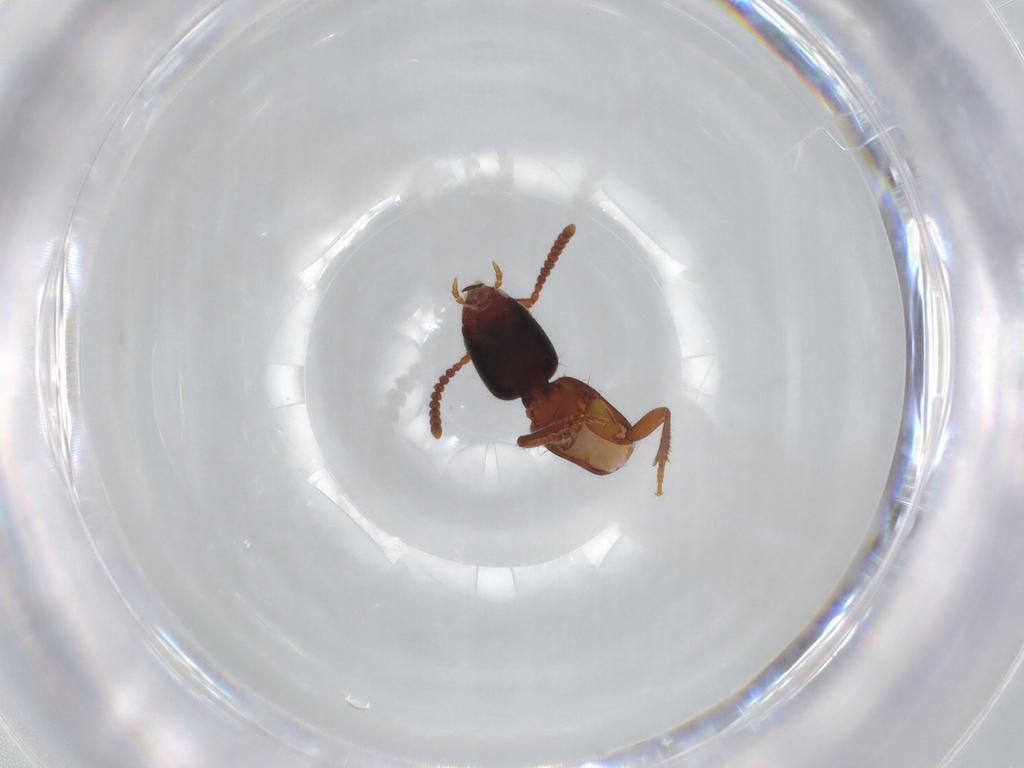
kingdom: Animalia
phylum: Arthropoda
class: Insecta
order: Coleoptera
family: Staphylinidae
